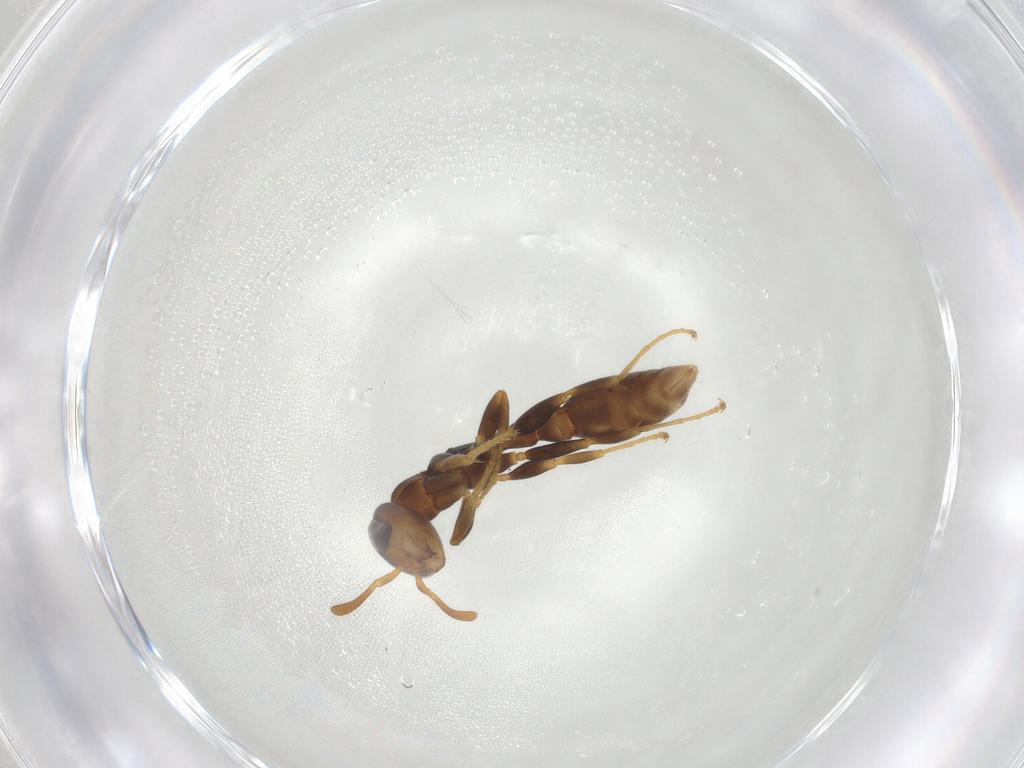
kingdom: Animalia
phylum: Arthropoda
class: Insecta
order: Hymenoptera
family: Formicidae
